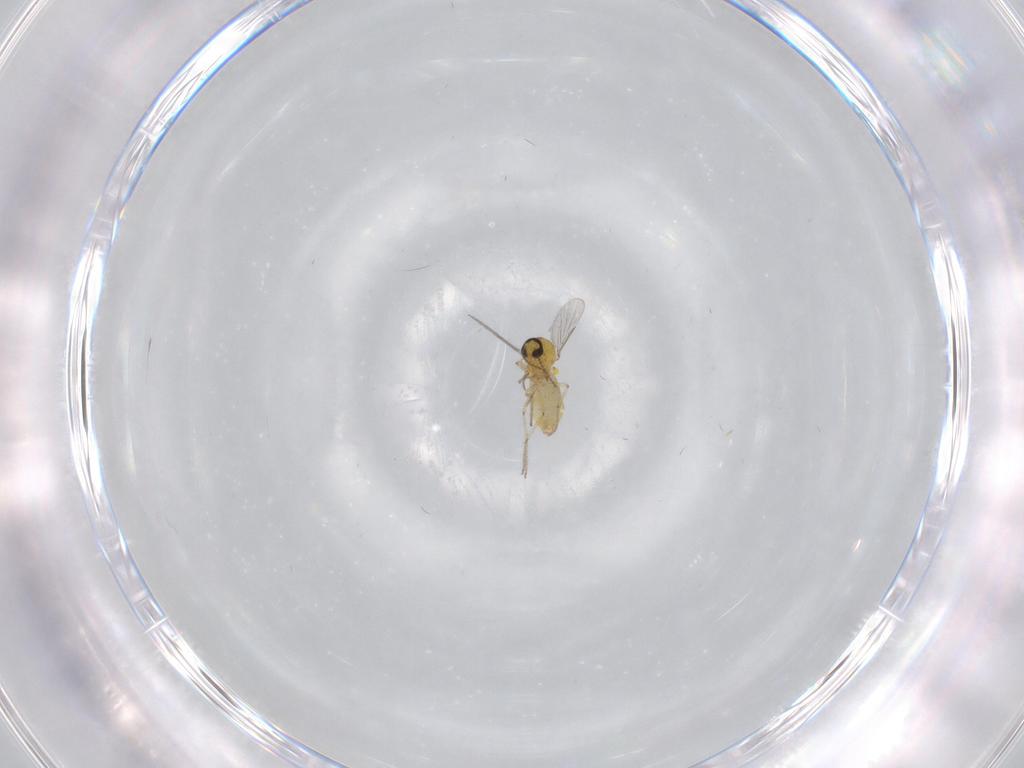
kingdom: Animalia
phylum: Arthropoda
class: Insecta
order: Diptera
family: Ceratopogonidae
